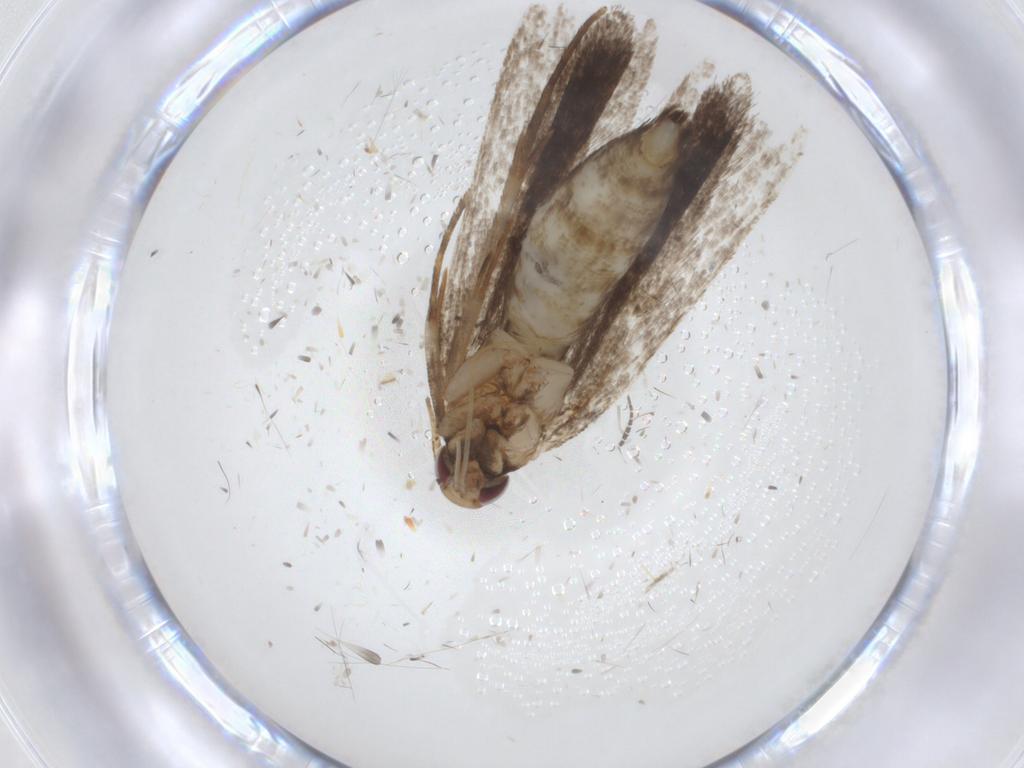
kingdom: Animalia
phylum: Arthropoda
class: Insecta
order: Lepidoptera
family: Gelechiidae
